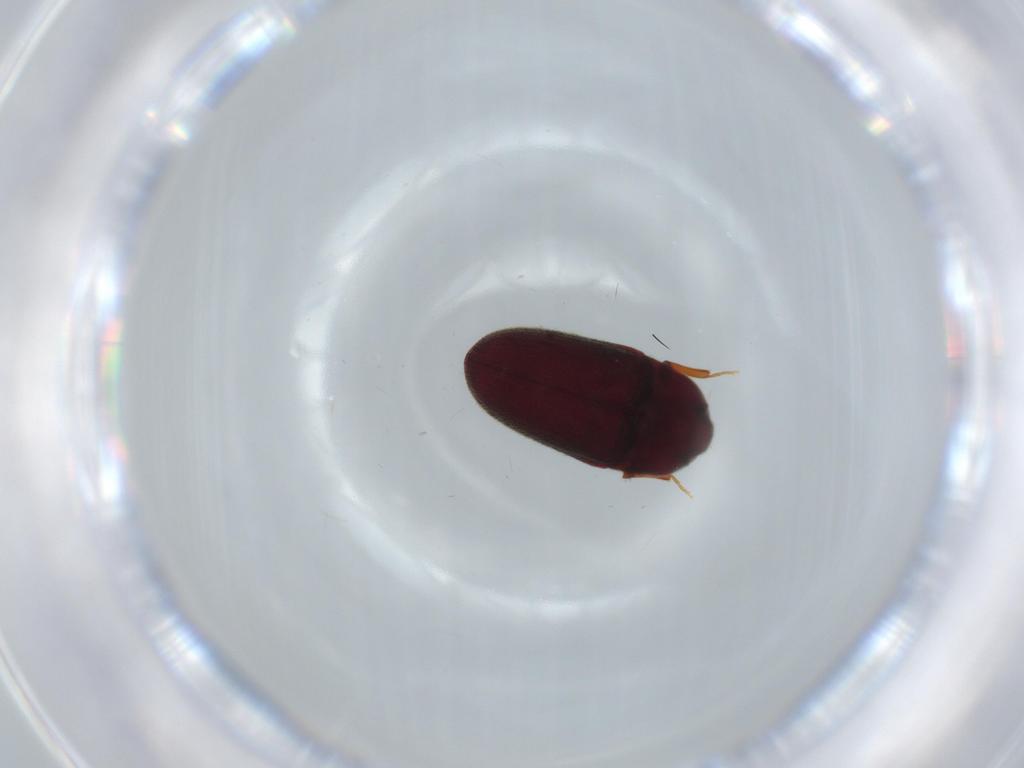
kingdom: Animalia
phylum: Arthropoda
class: Insecta
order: Coleoptera
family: Throscidae
